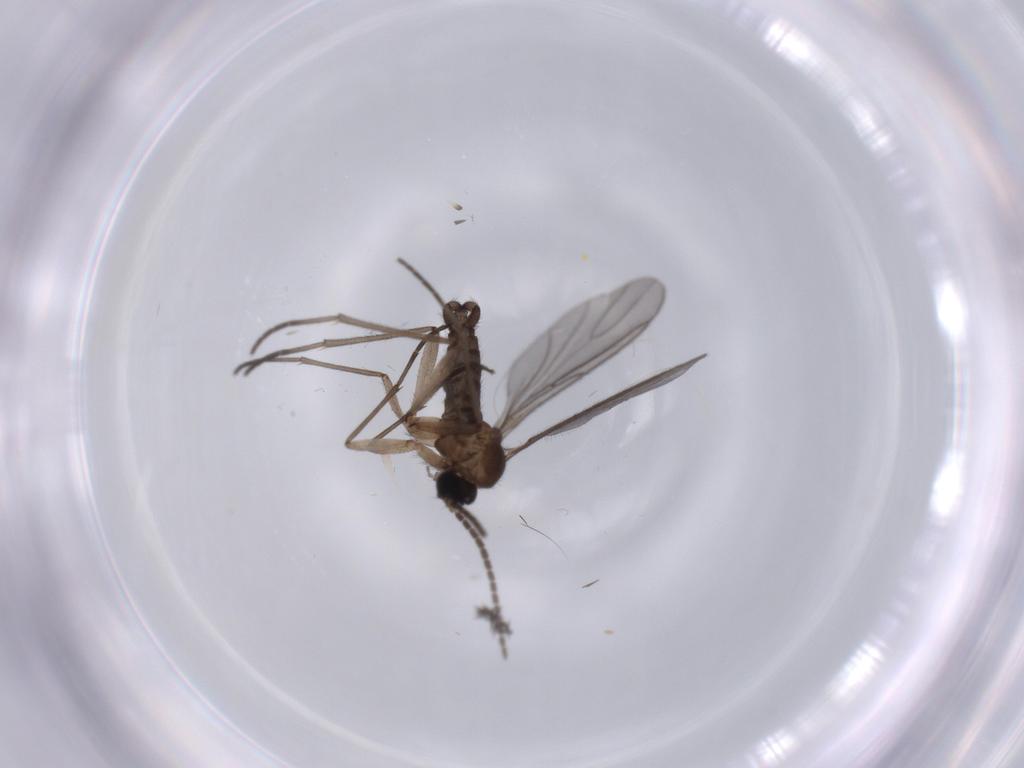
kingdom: Animalia
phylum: Arthropoda
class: Insecta
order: Diptera
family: Sciaridae
